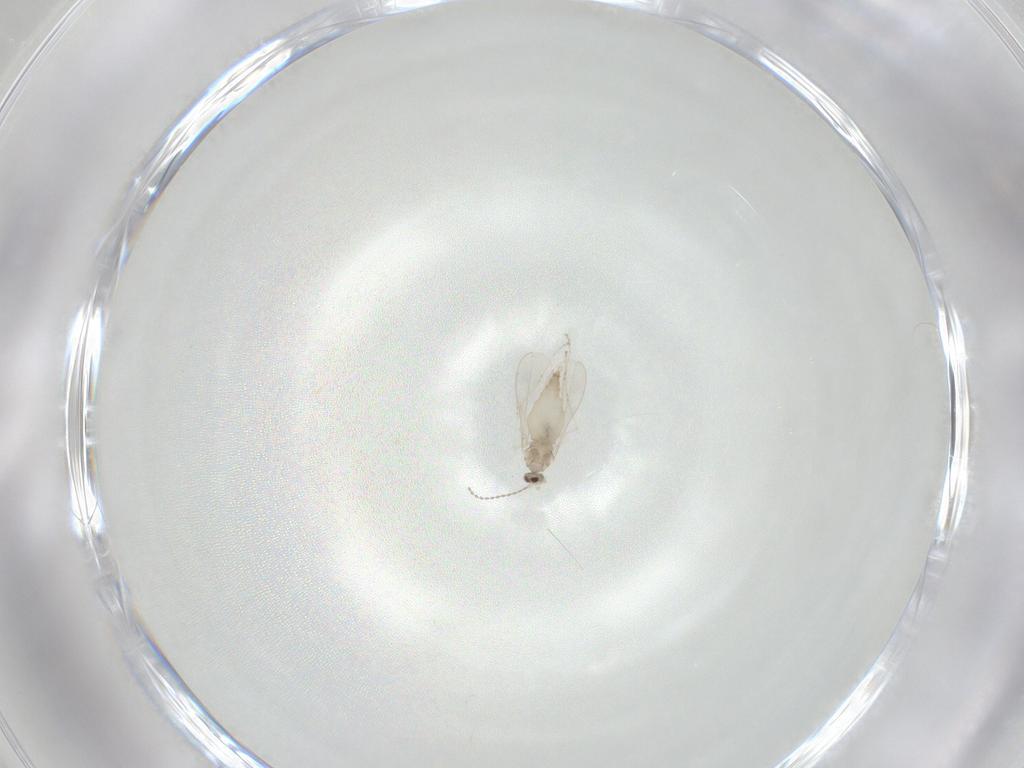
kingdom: Animalia
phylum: Arthropoda
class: Insecta
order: Diptera
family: Cecidomyiidae
